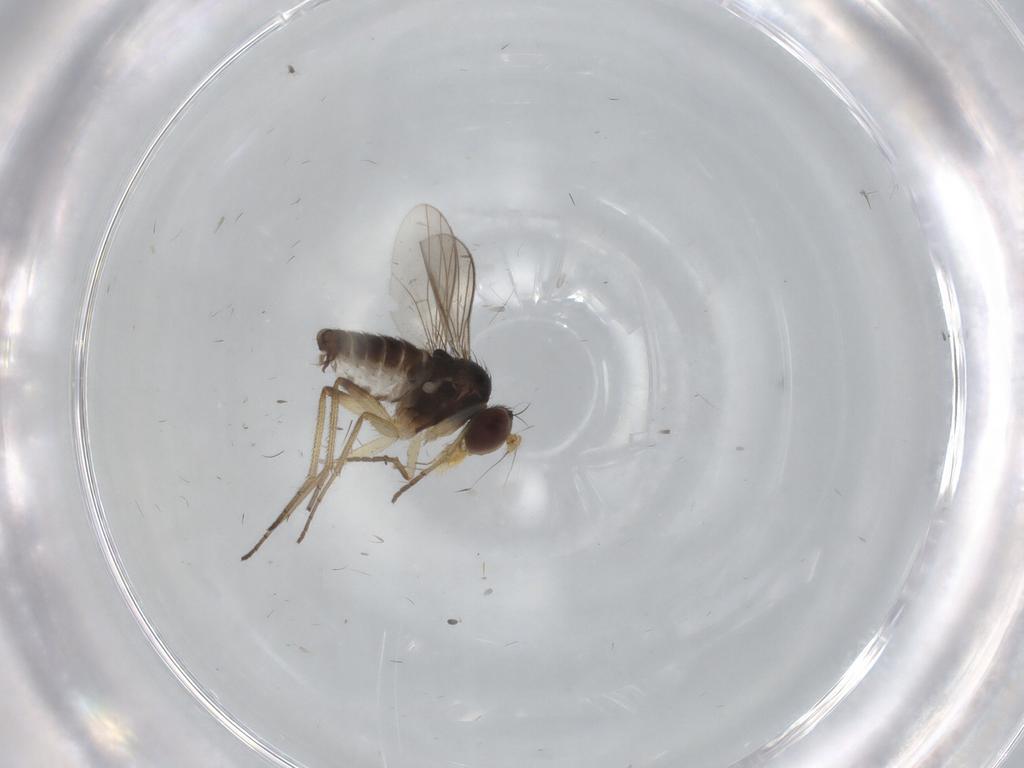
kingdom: Animalia
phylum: Arthropoda
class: Insecta
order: Diptera
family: Dolichopodidae
